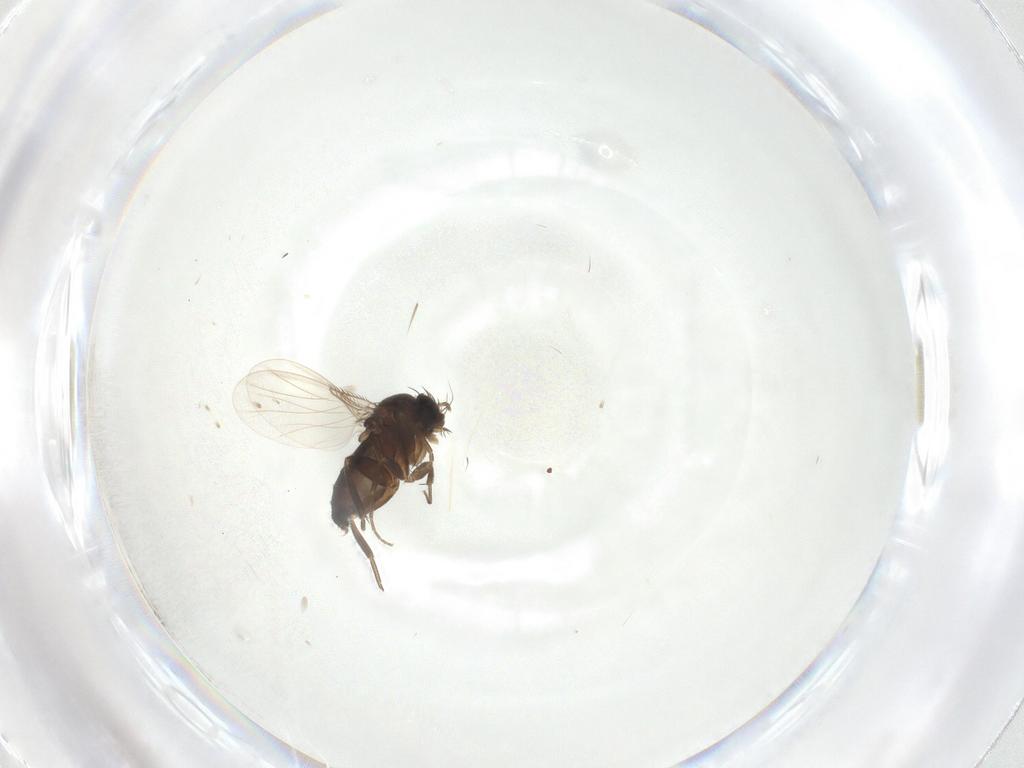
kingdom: Animalia
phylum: Arthropoda
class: Insecta
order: Diptera
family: Phoridae
